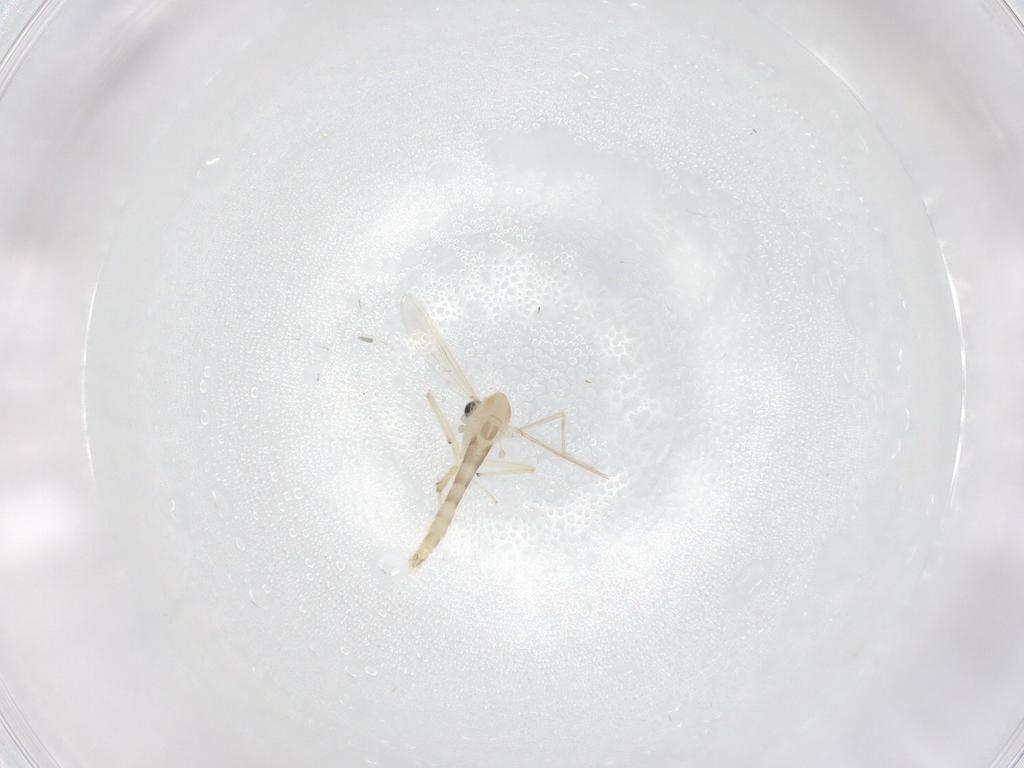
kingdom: Animalia
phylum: Arthropoda
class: Insecta
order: Diptera
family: Chironomidae
